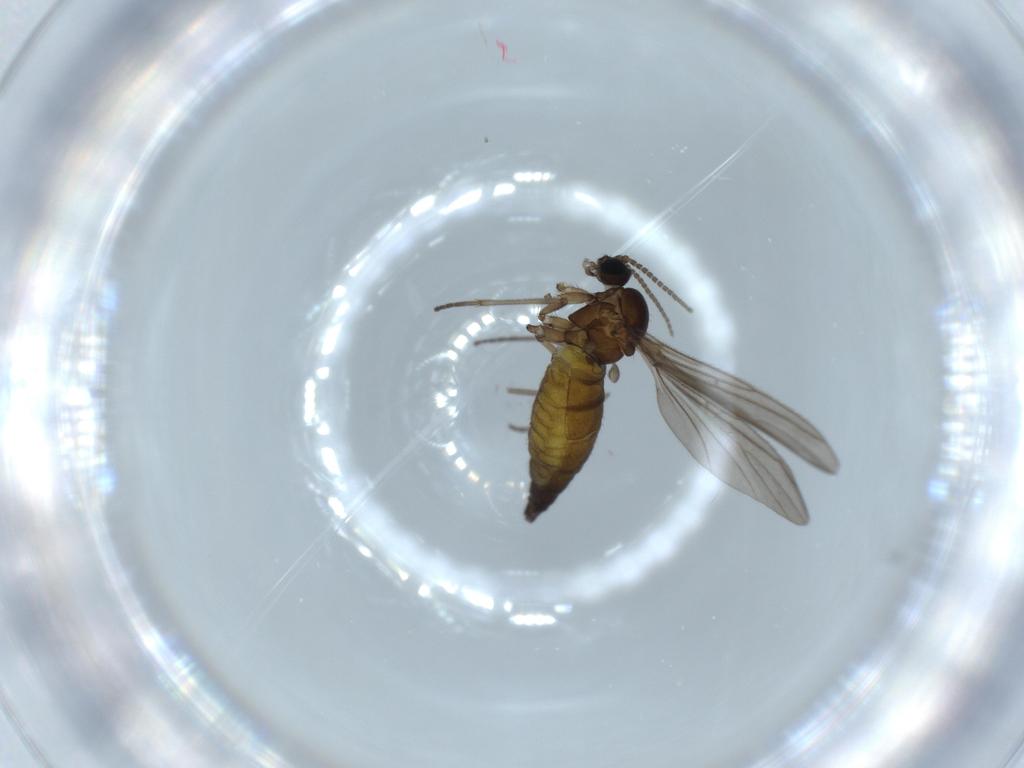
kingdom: Animalia
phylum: Arthropoda
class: Insecta
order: Diptera
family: Sciaridae
